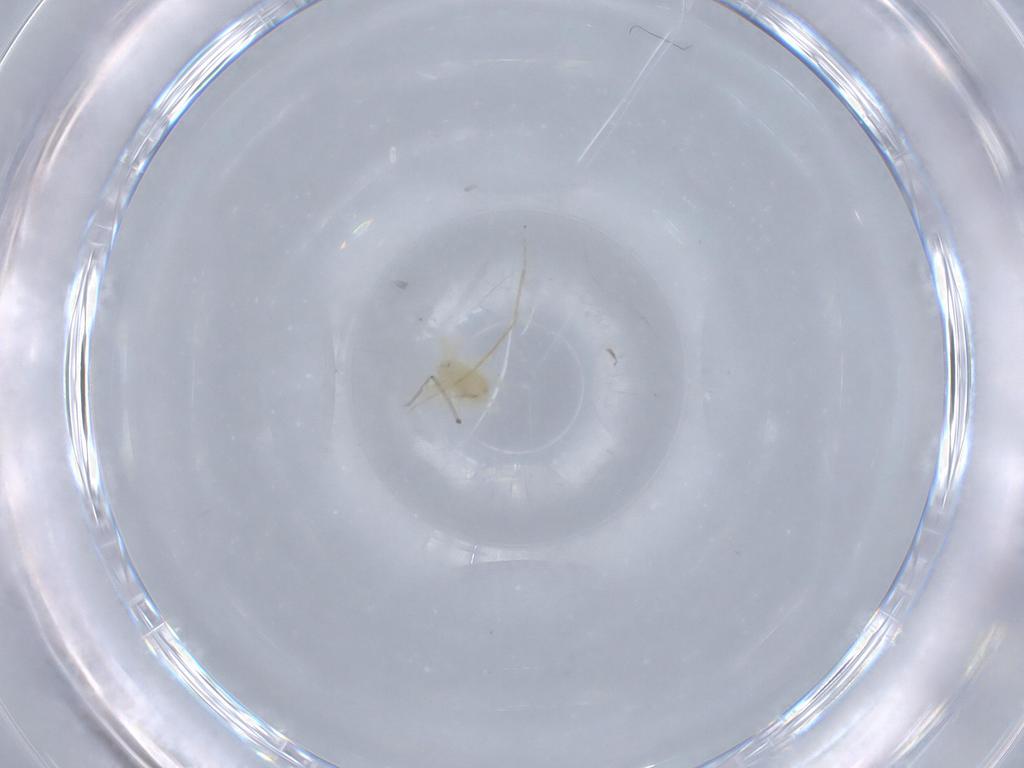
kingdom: Animalia
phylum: Arthropoda
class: Arachnida
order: Trombidiformes
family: Anystidae
